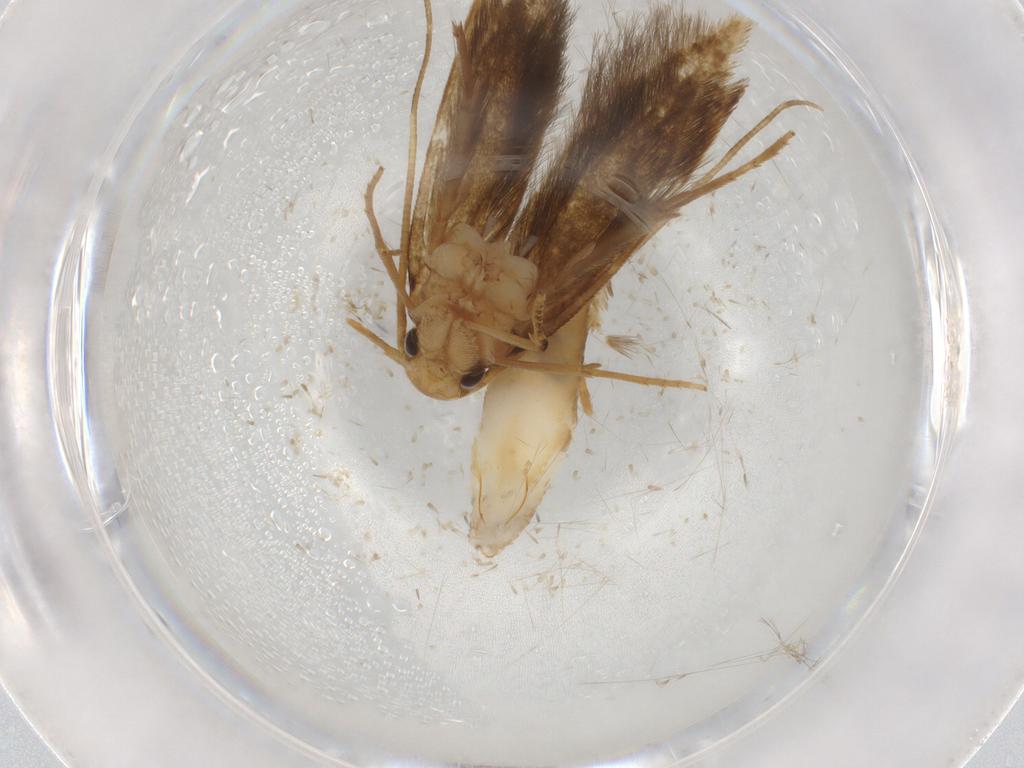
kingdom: Animalia
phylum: Arthropoda
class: Insecta
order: Lepidoptera
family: Tineidae
